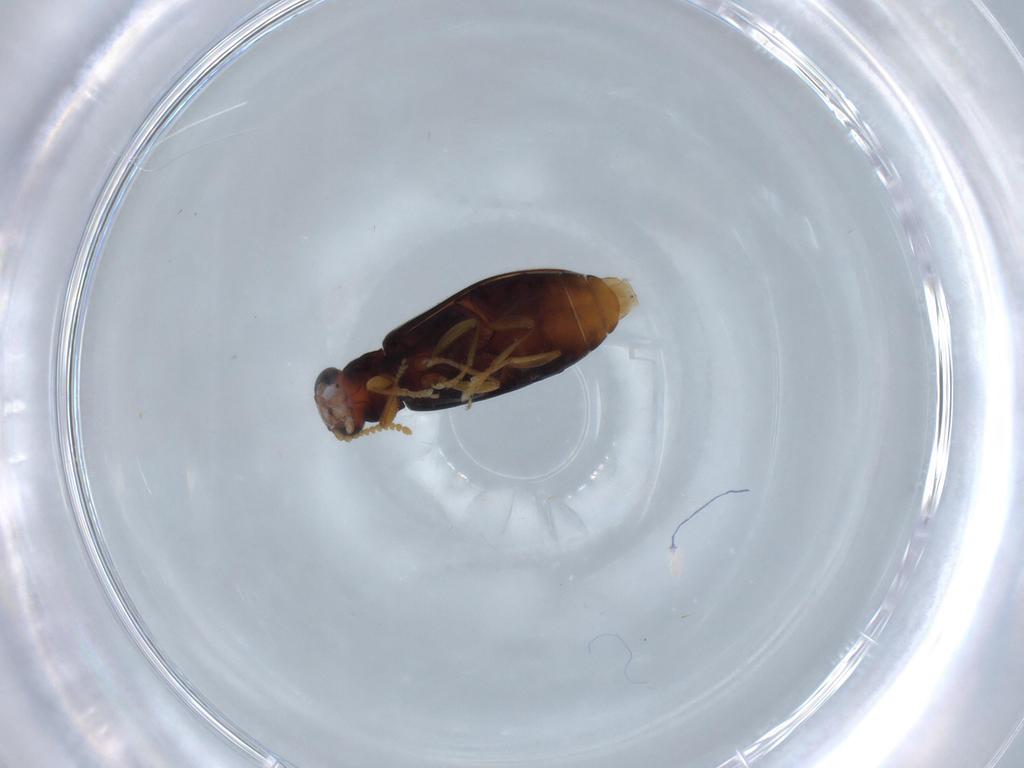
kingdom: Animalia
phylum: Arthropoda
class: Insecta
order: Coleoptera
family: Mycteridae
